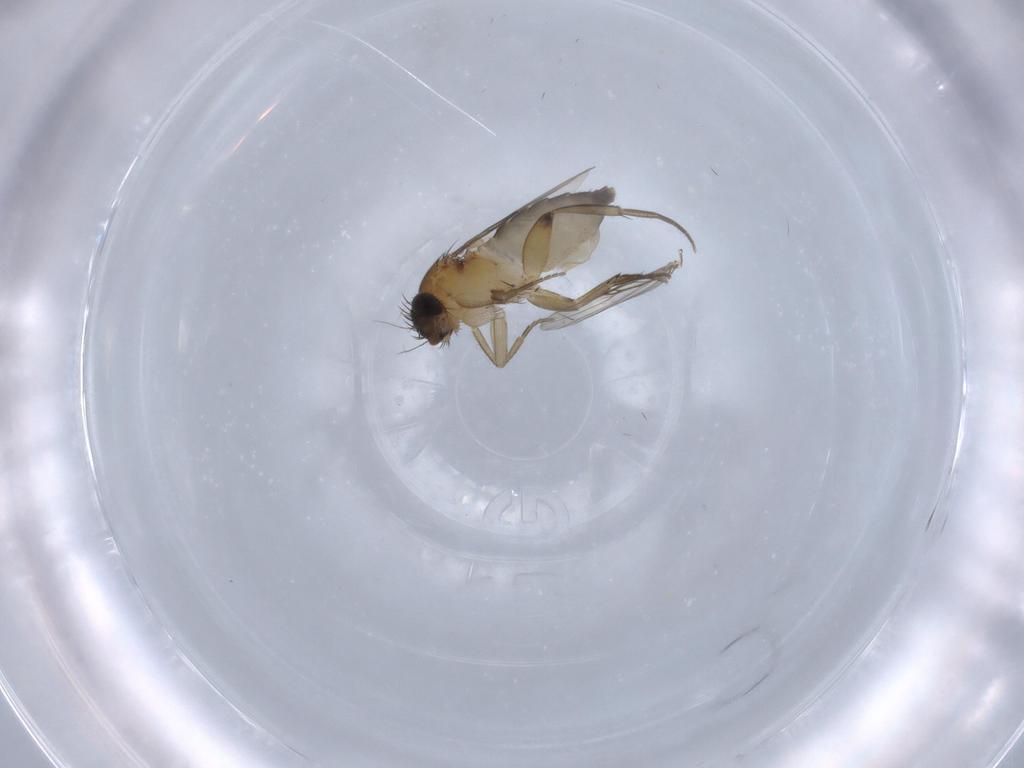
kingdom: Animalia
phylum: Arthropoda
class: Insecta
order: Diptera
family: Phoridae
